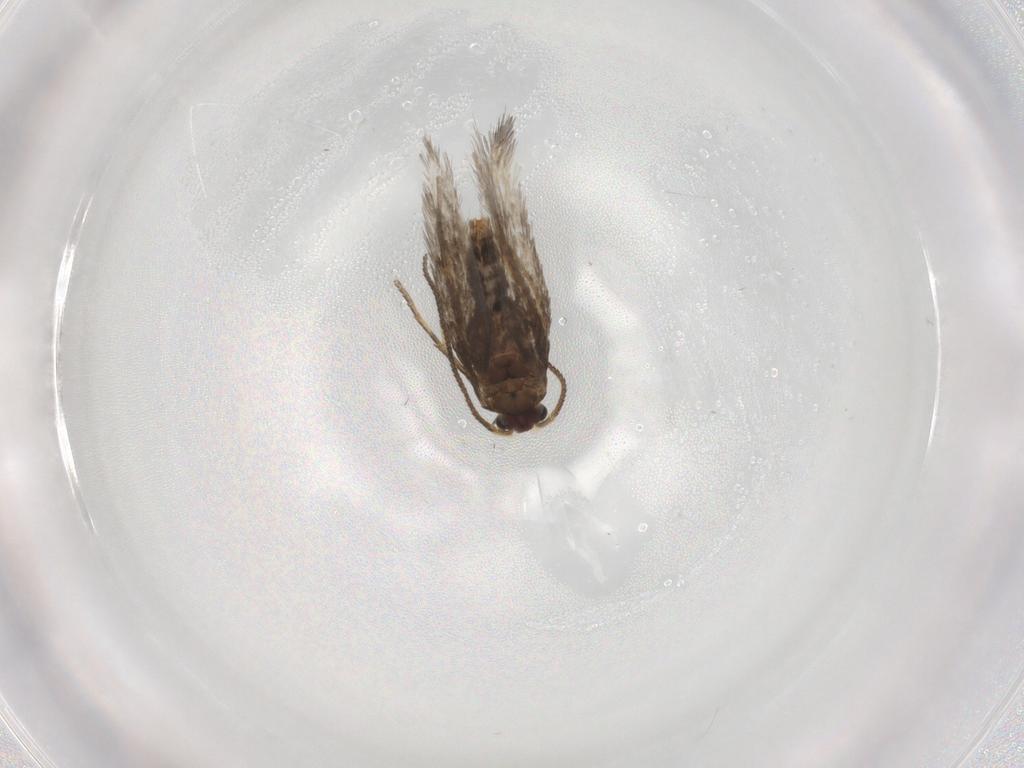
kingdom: Animalia
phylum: Arthropoda
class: Insecta
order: Lepidoptera
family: Nepticulidae
